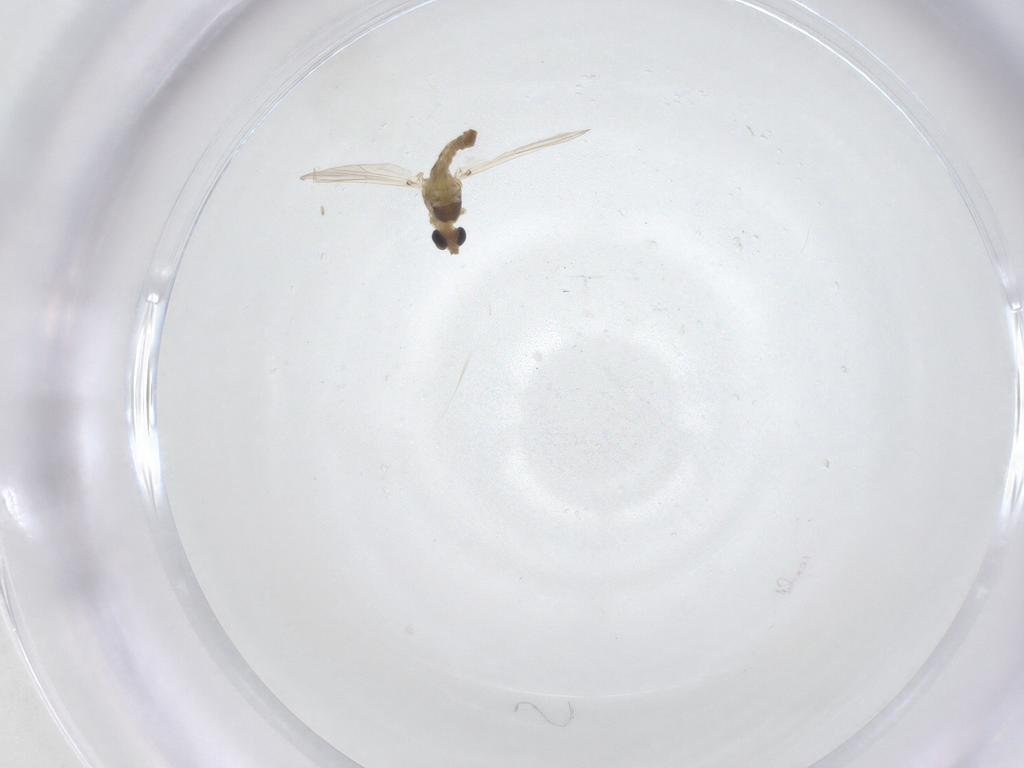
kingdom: Animalia
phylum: Arthropoda
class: Insecta
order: Diptera
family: Chironomidae
